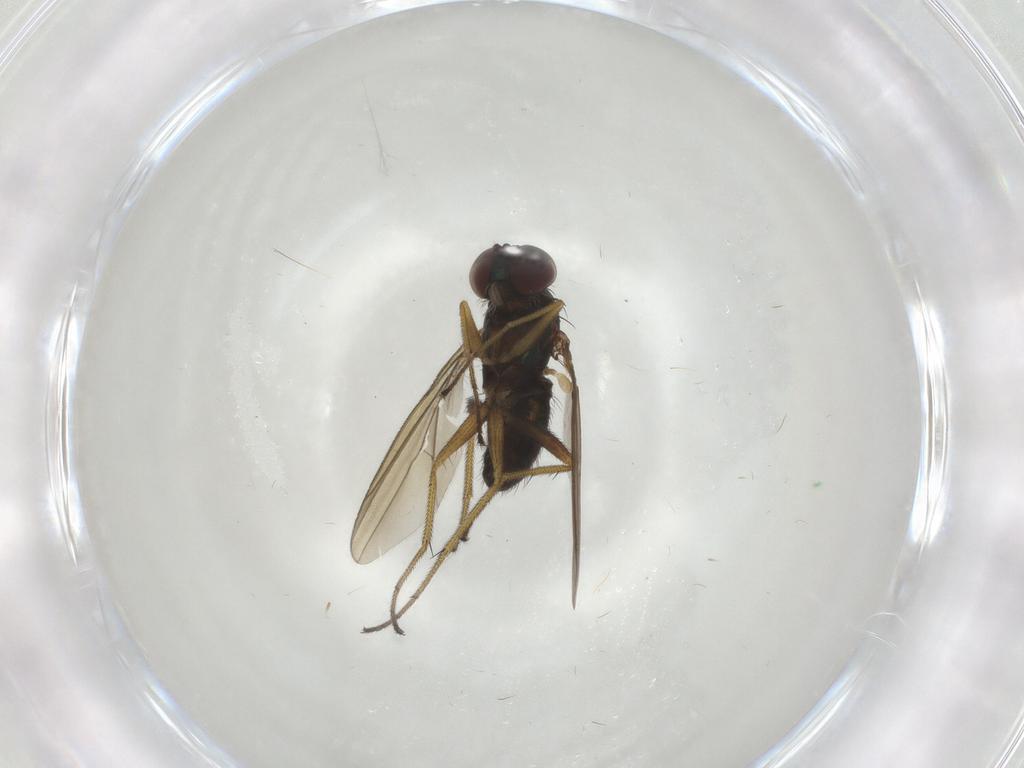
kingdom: Animalia
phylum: Arthropoda
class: Insecta
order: Diptera
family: Dolichopodidae
